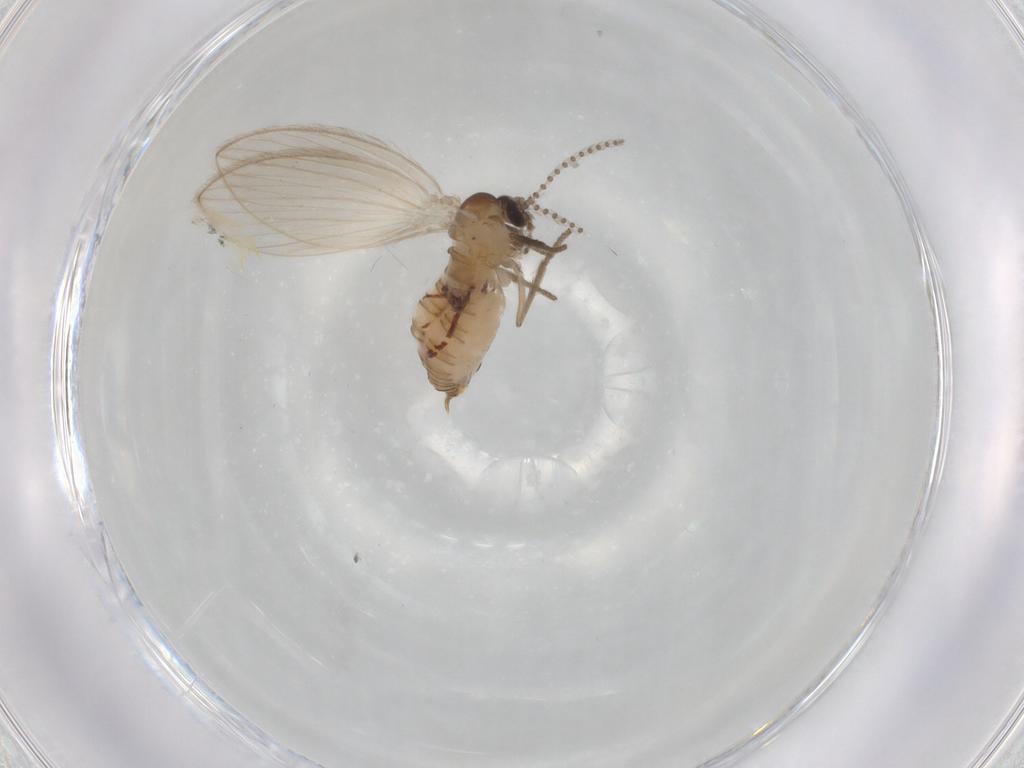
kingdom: Animalia
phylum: Arthropoda
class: Insecta
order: Diptera
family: Psychodidae
